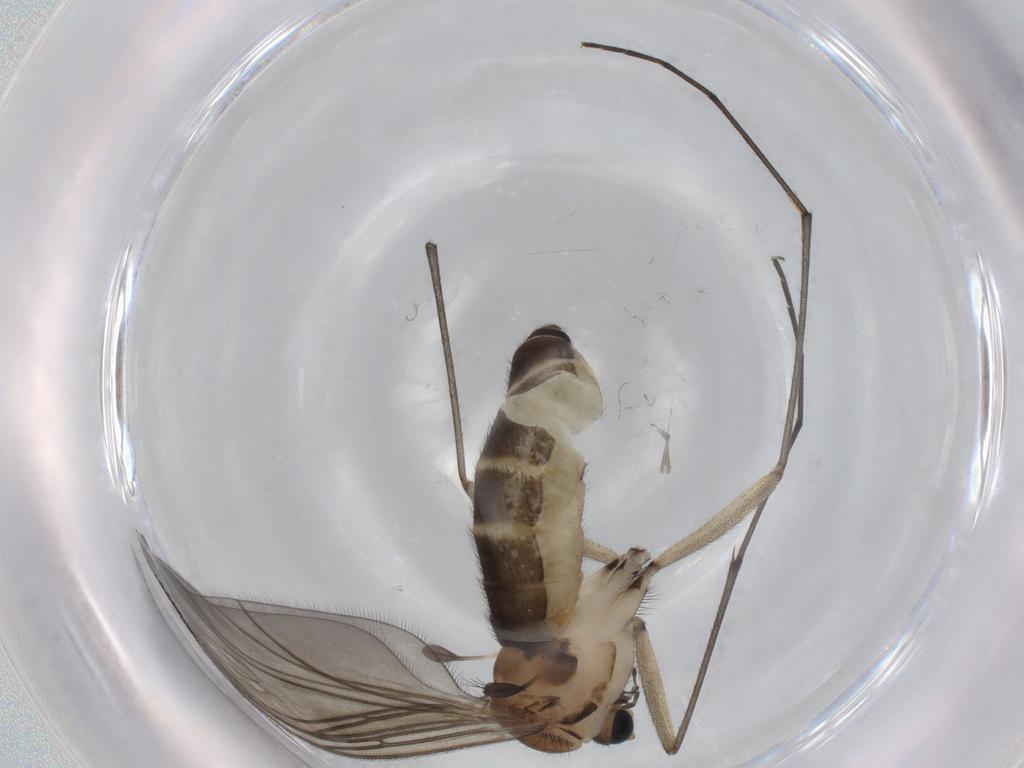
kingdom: Animalia
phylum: Arthropoda
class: Insecta
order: Diptera
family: Sciaridae
